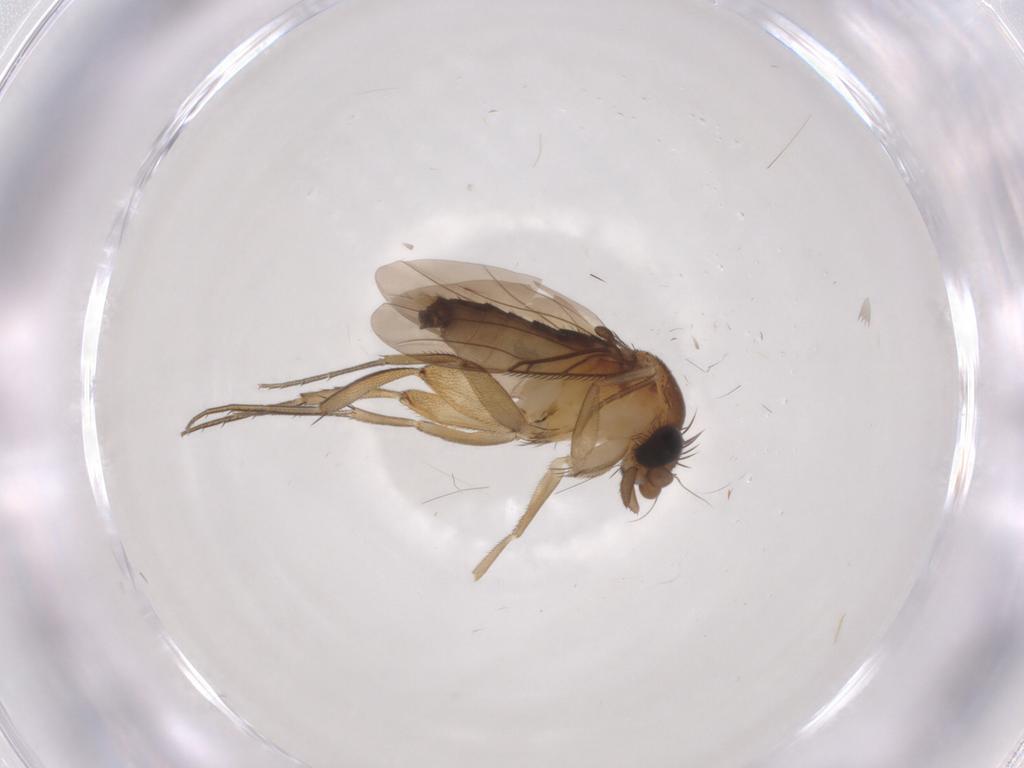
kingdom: Animalia
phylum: Arthropoda
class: Insecta
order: Diptera
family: Phoridae
